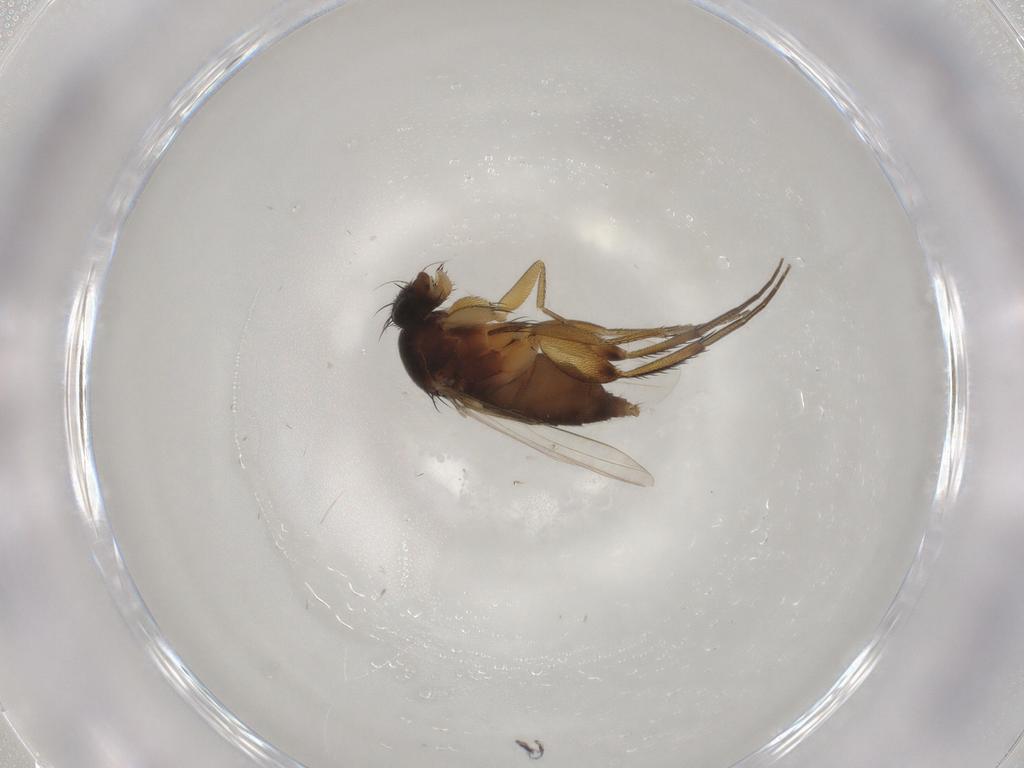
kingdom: Animalia
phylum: Arthropoda
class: Insecta
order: Diptera
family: Phoridae
